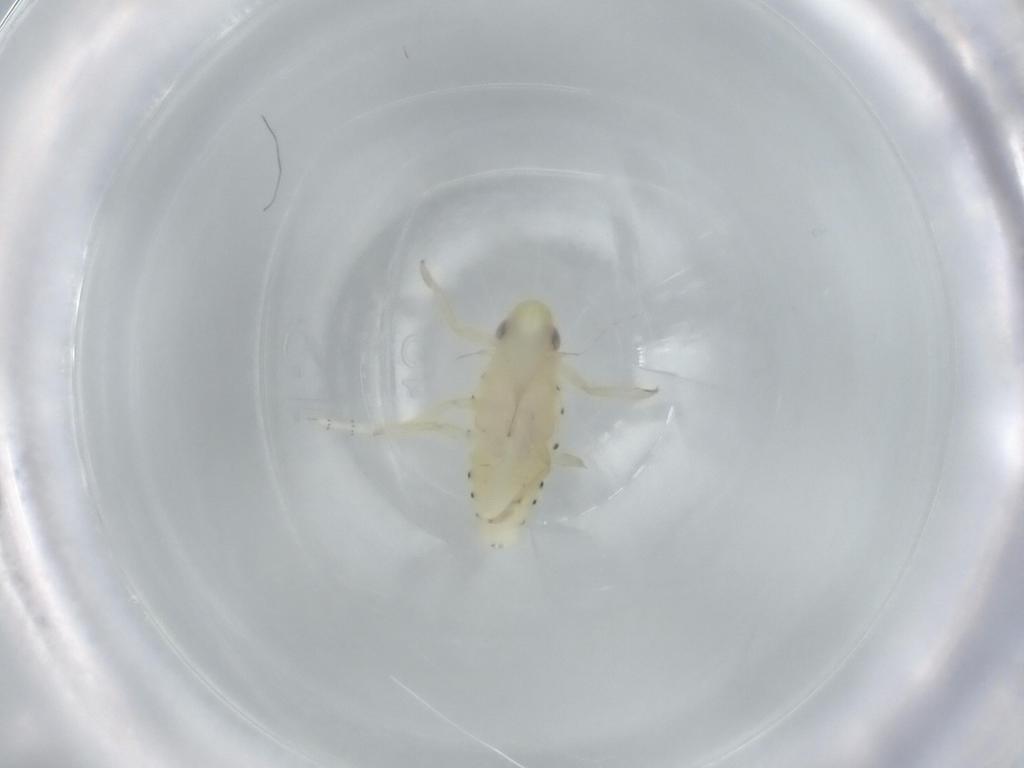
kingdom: Animalia
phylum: Arthropoda
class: Insecta
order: Hemiptera
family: Tropiduchidae
